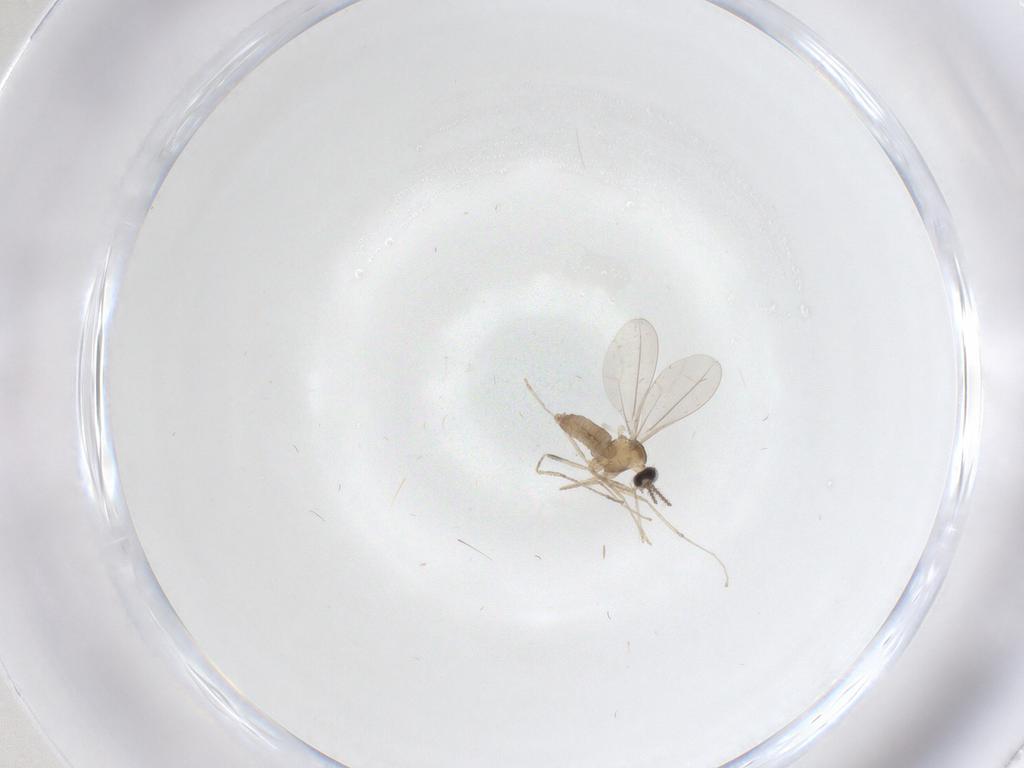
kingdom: Animalia
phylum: Arthropoda
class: Insecta
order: Diptera
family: Cecidomyiidae
